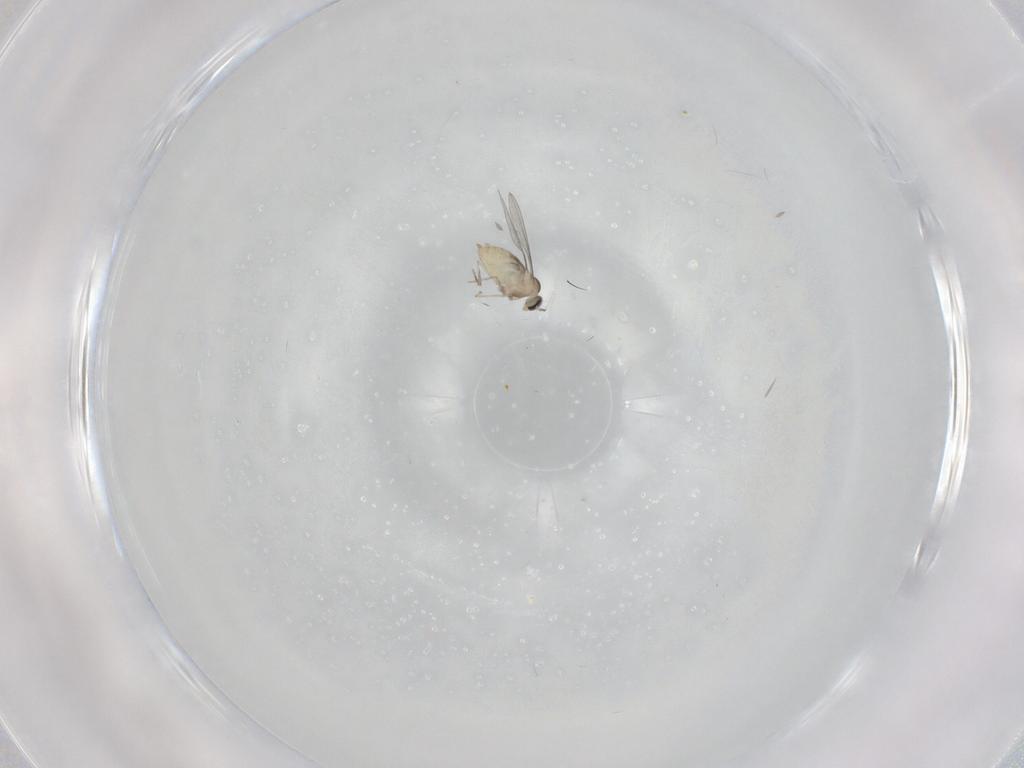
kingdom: Animalia
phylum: Arthropoda
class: Insecta
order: Diptera
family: Cecidomyiidae
